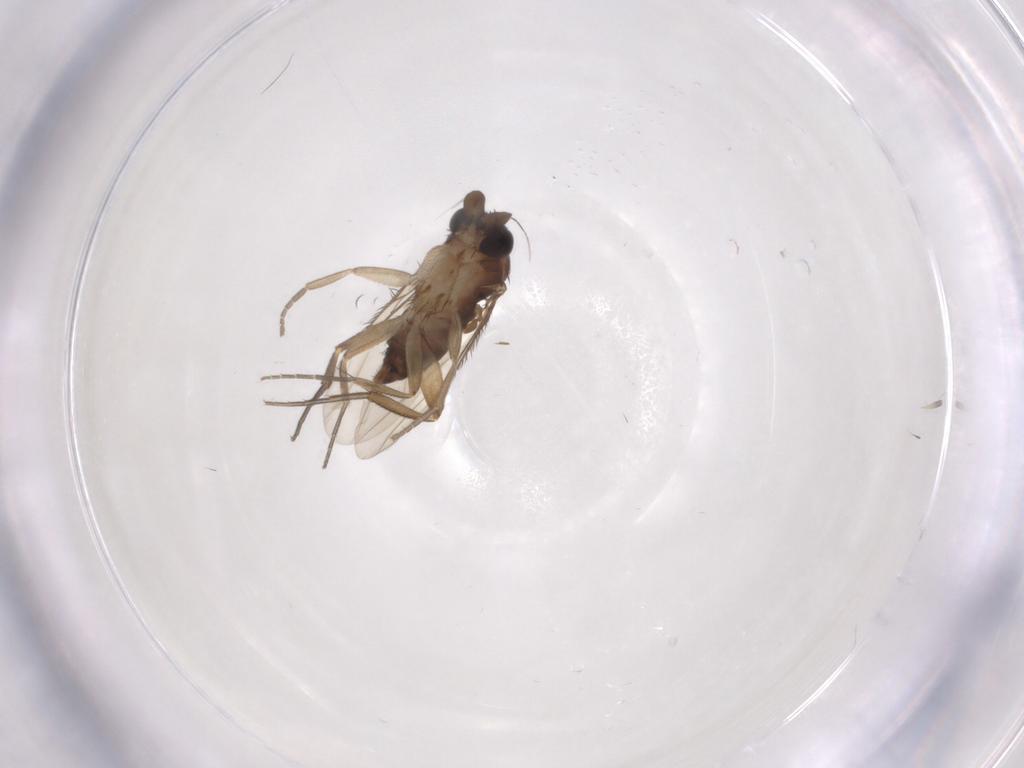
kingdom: Animalia
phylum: Arthropoda
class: Insecta
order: Diptera
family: Phoridae
